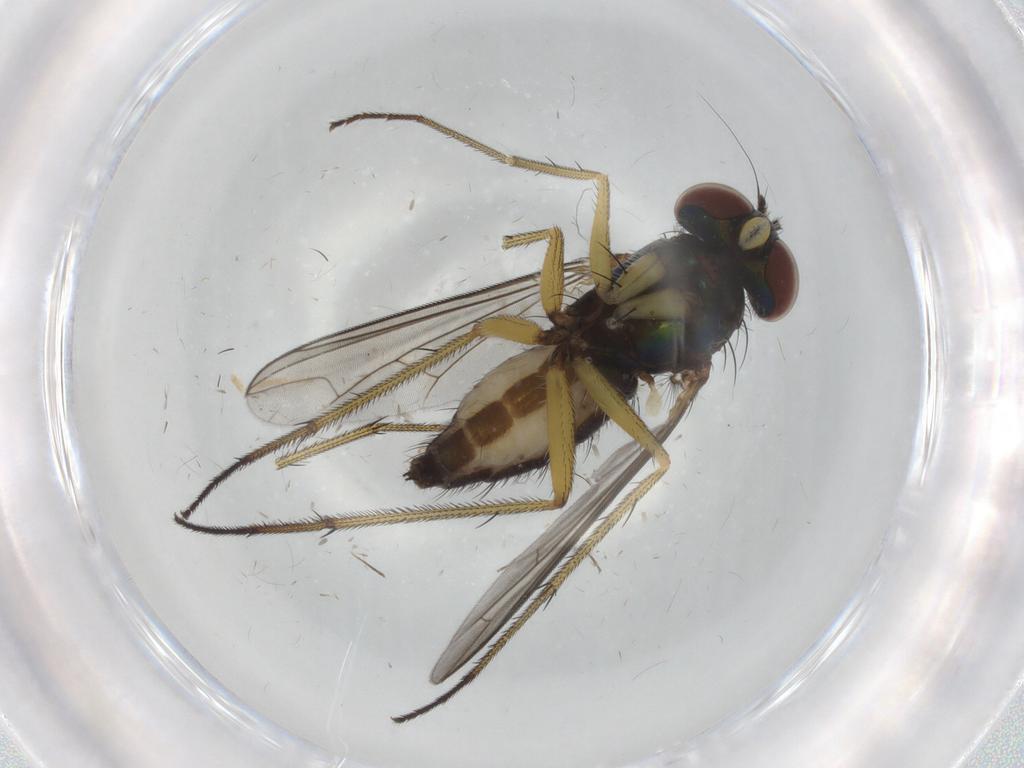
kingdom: Animalia
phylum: Arthropoda
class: Insecta
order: Diptera
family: Dolichopodidae
